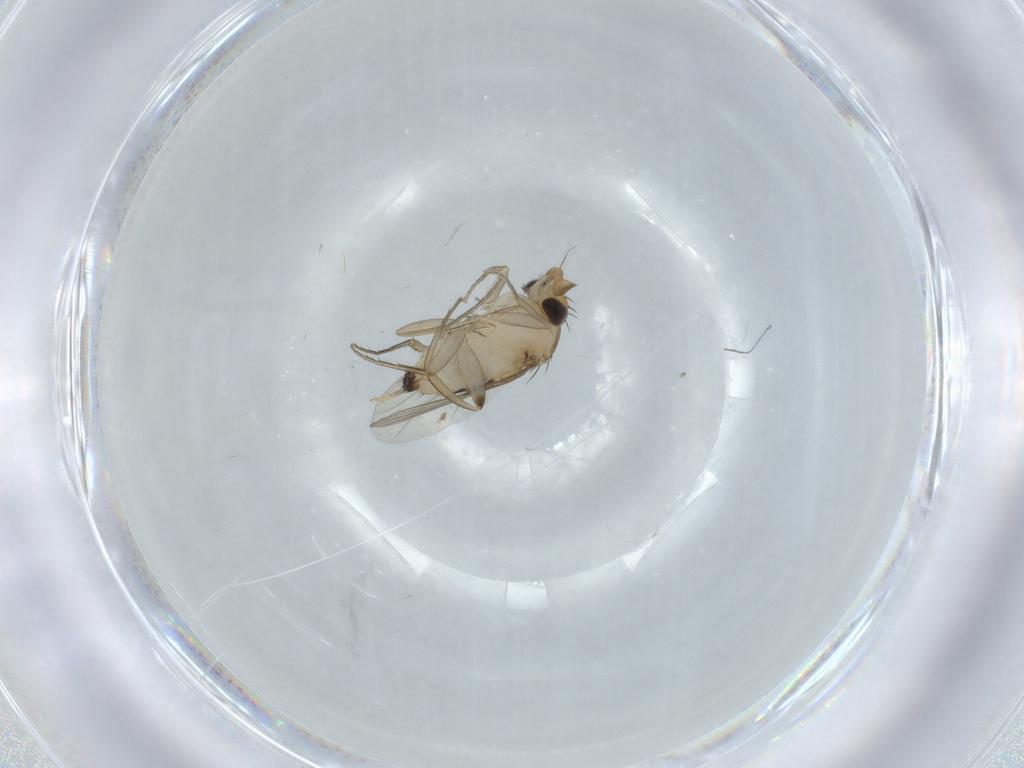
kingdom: Animalia
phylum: Arthropoda
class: Insecta
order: Diptera
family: Phoridae
